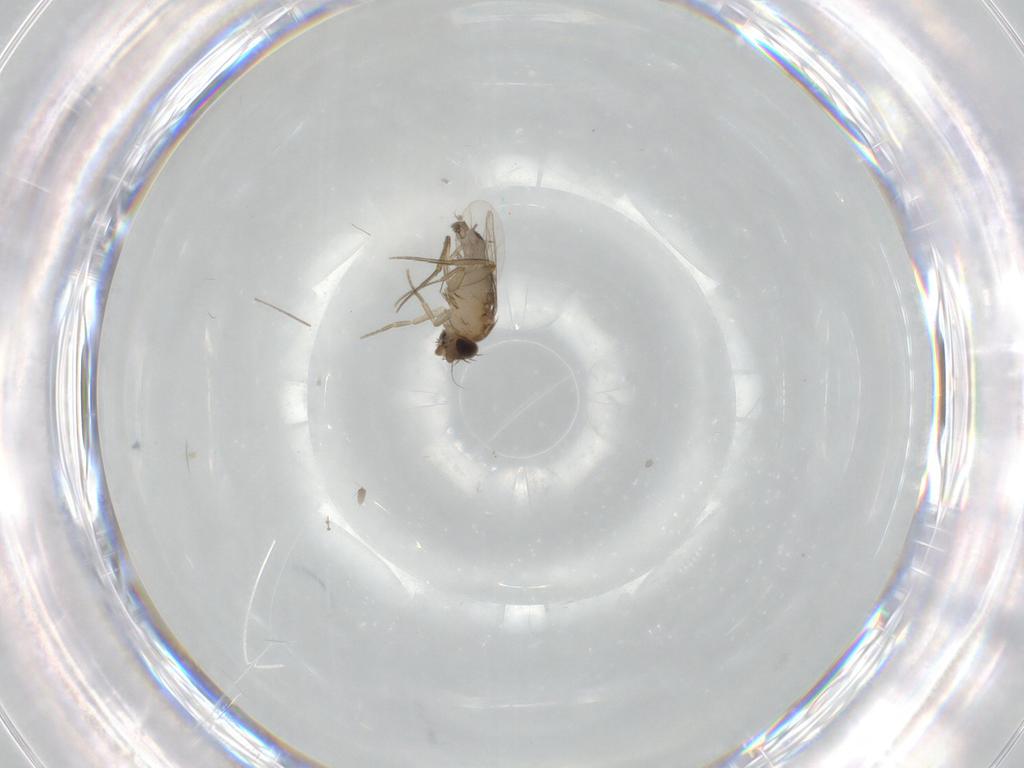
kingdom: Animalia
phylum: Arthropoda
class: Insecta
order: Diptera
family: Phoridae
